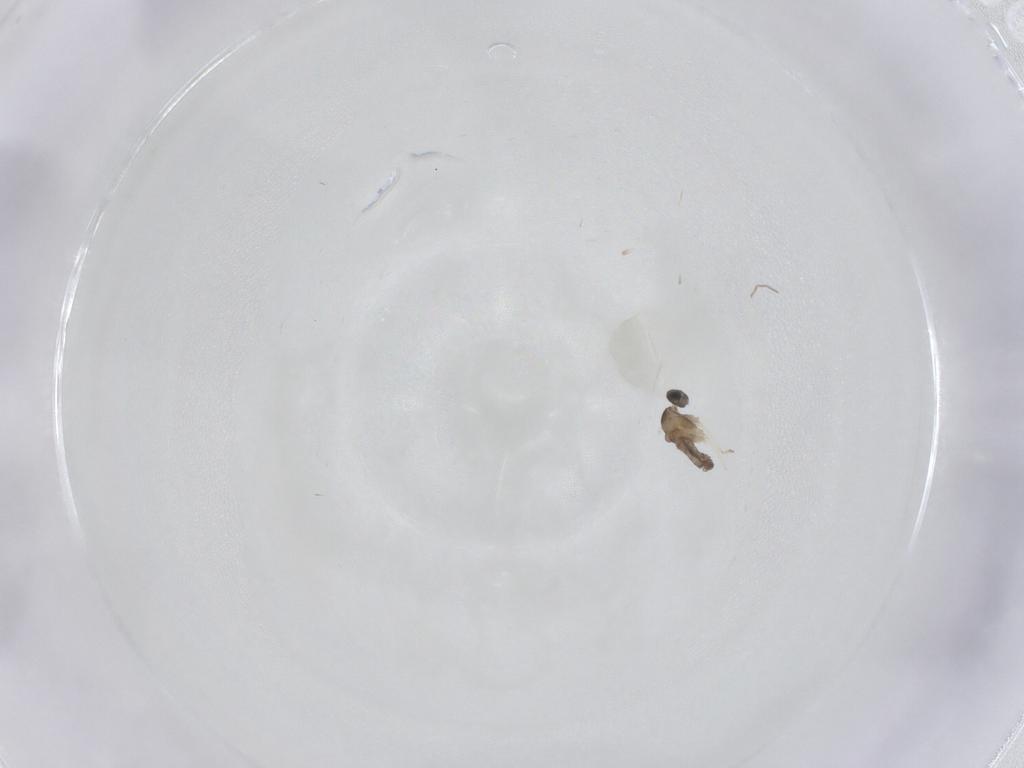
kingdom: Animalia
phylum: Arthropoda
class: Insecta
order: Diptera
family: Cecidomyiidae
